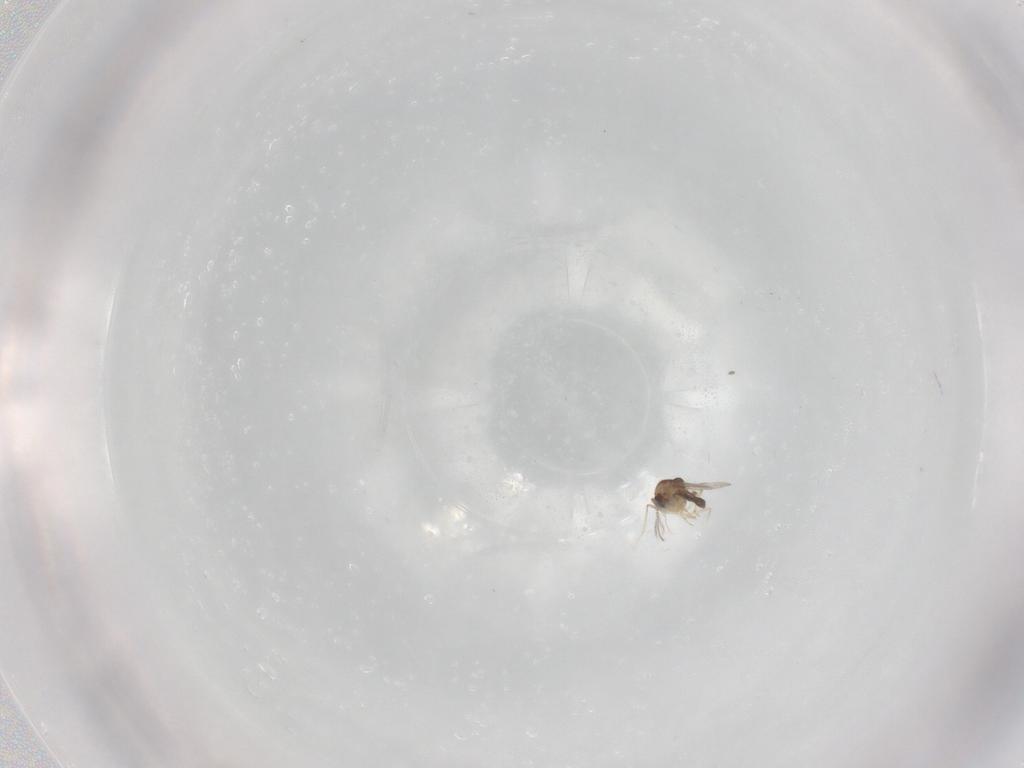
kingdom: Animalia
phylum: Arthropoda
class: Insecta
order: Diptera
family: Ceratopogonidae
